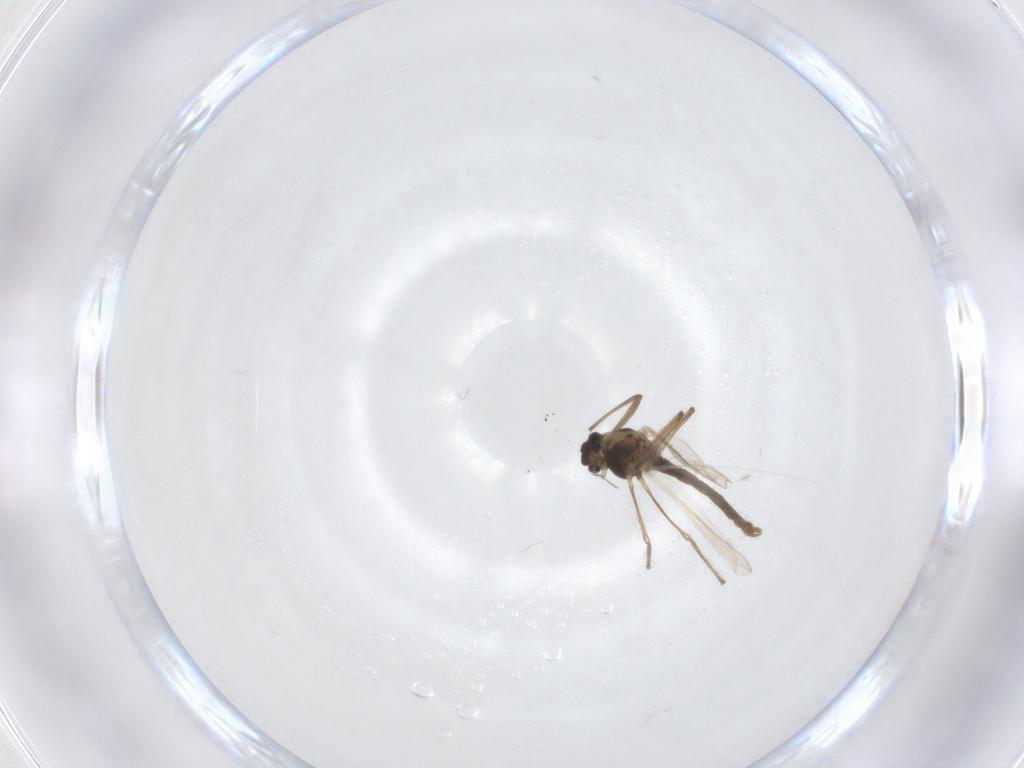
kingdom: Animalia
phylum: Arthropoda
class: Insecta
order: Diptera
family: Chironomidae
